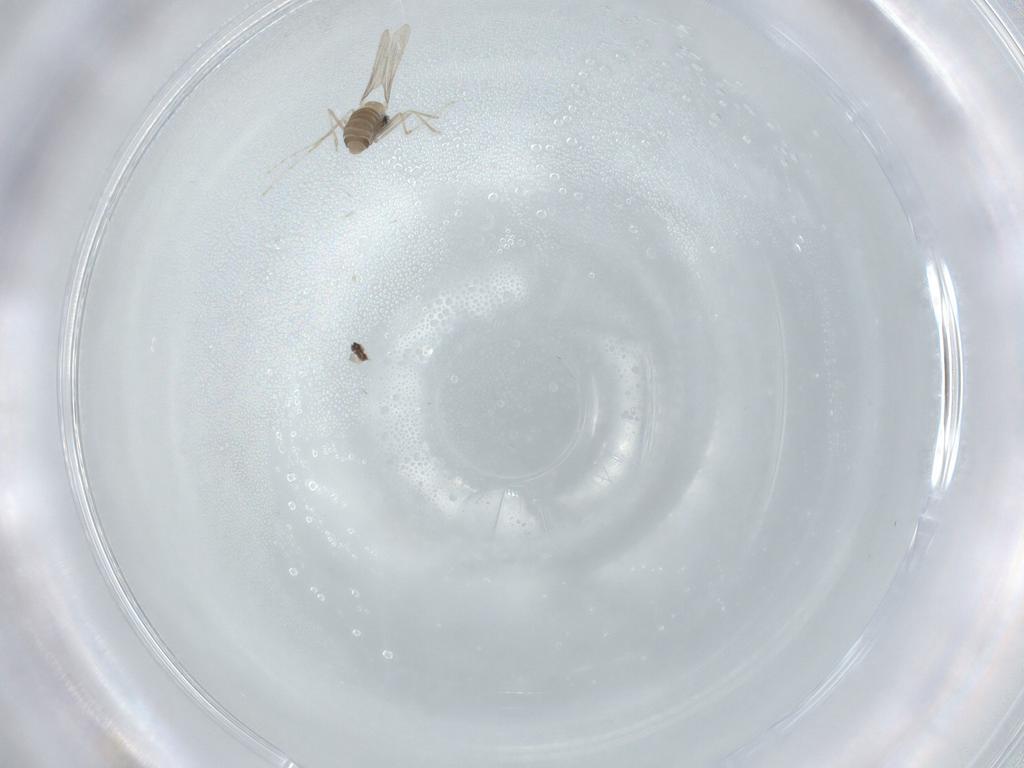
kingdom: Animalia
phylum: Arthropoda
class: Insecta
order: Diptera
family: Cecidomyiidae
